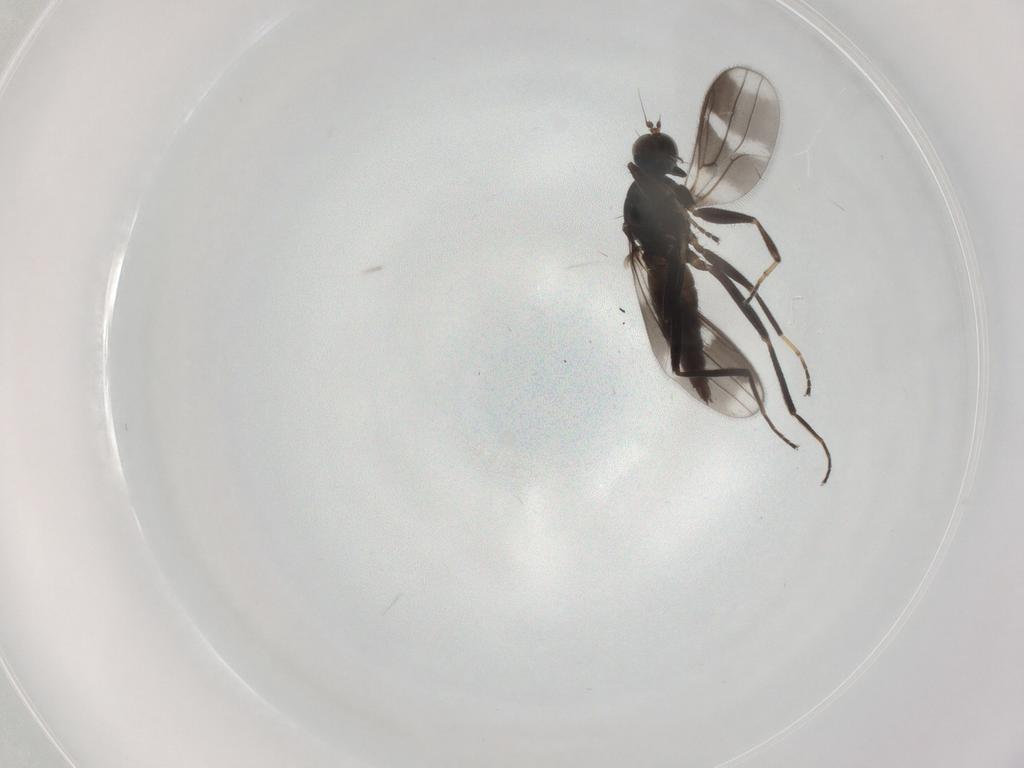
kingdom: Animalia
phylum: Arthropoda
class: Insecta
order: Diptera
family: Hybotidae
